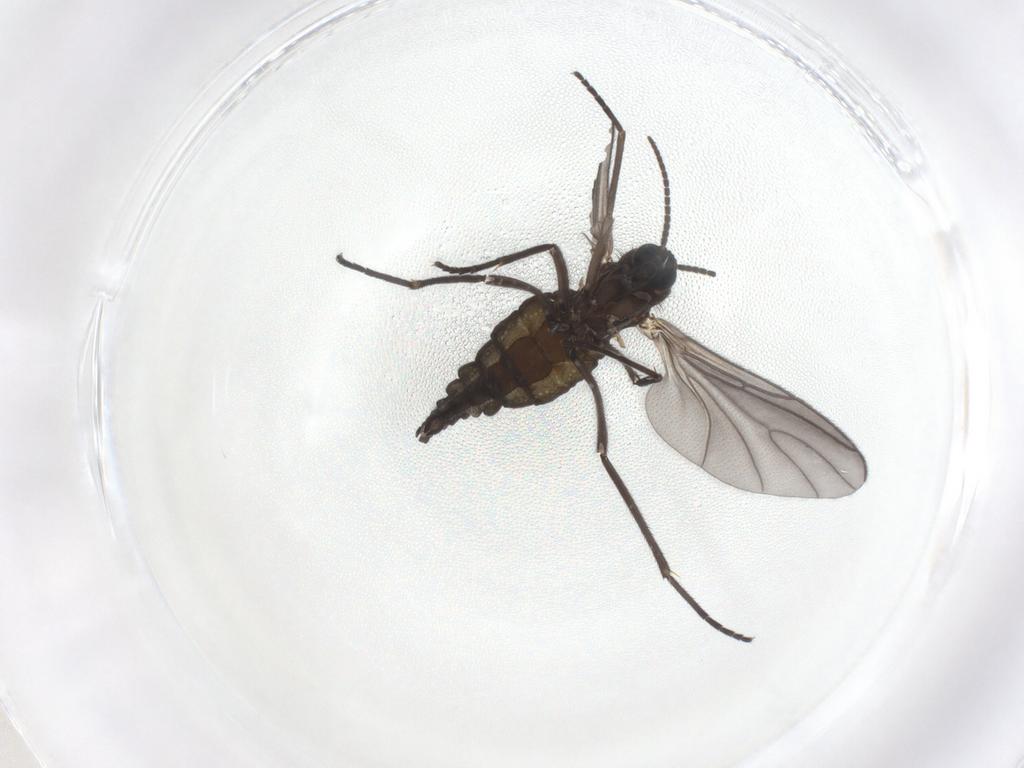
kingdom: Animalia
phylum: Arthropoda
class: Insecta
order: Diptera
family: Sciaridae
